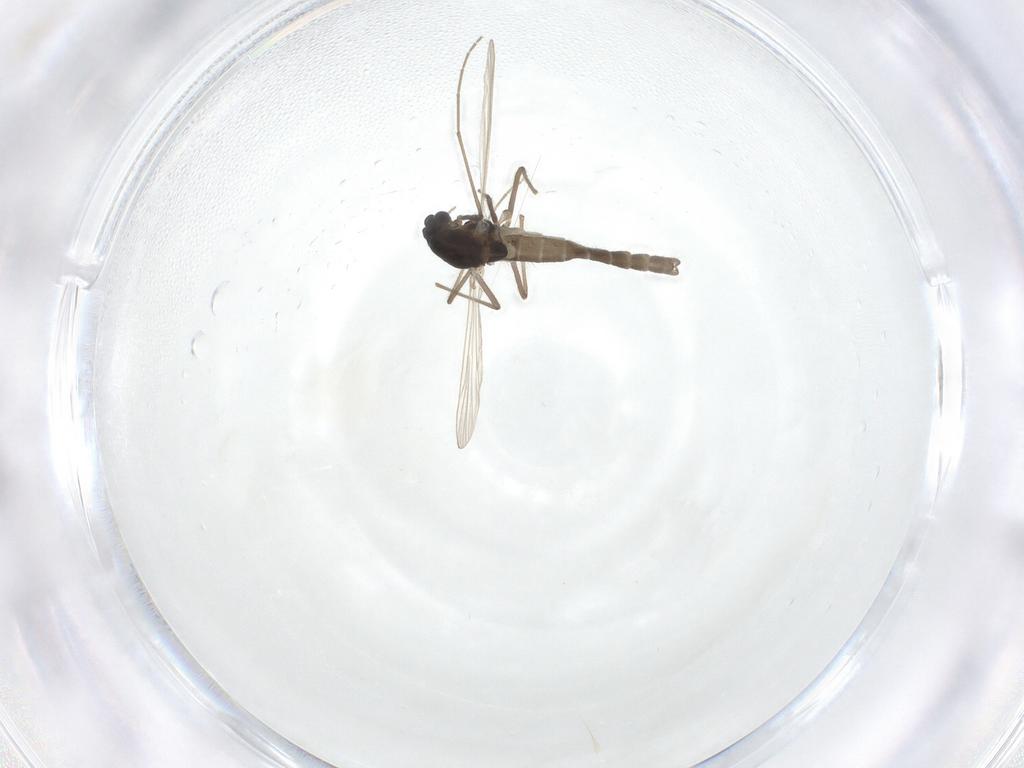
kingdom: Animalia
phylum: Arthropoda
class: Insecta
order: Diptera
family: Chironomidae
